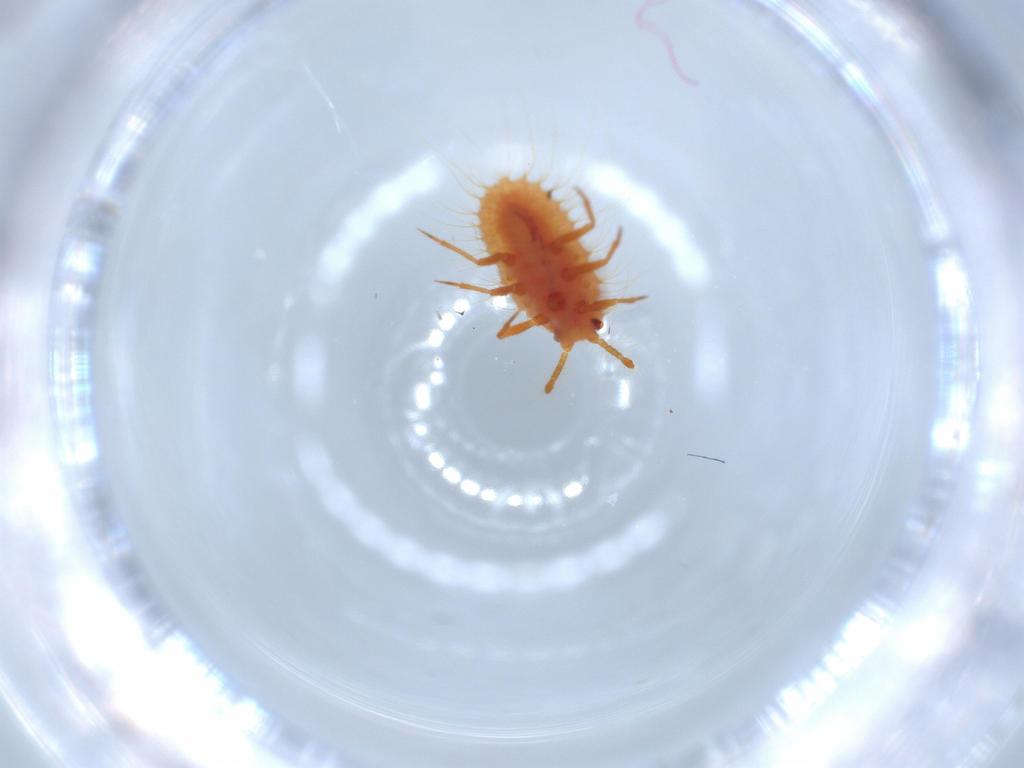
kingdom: Animalia
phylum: Arthropoda
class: Insecta
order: Hemiptera
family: Coccoidea_incertae_sedis
